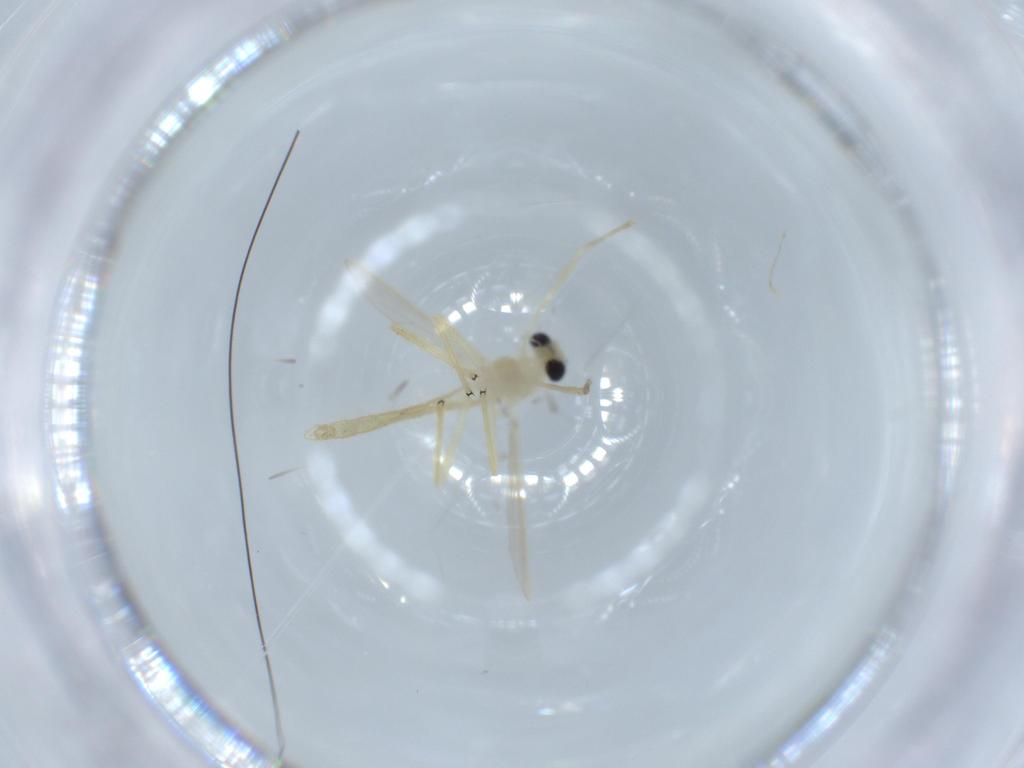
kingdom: Animalia
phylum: Arthropoda
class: Insecta
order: Diptera
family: Chironomidae
